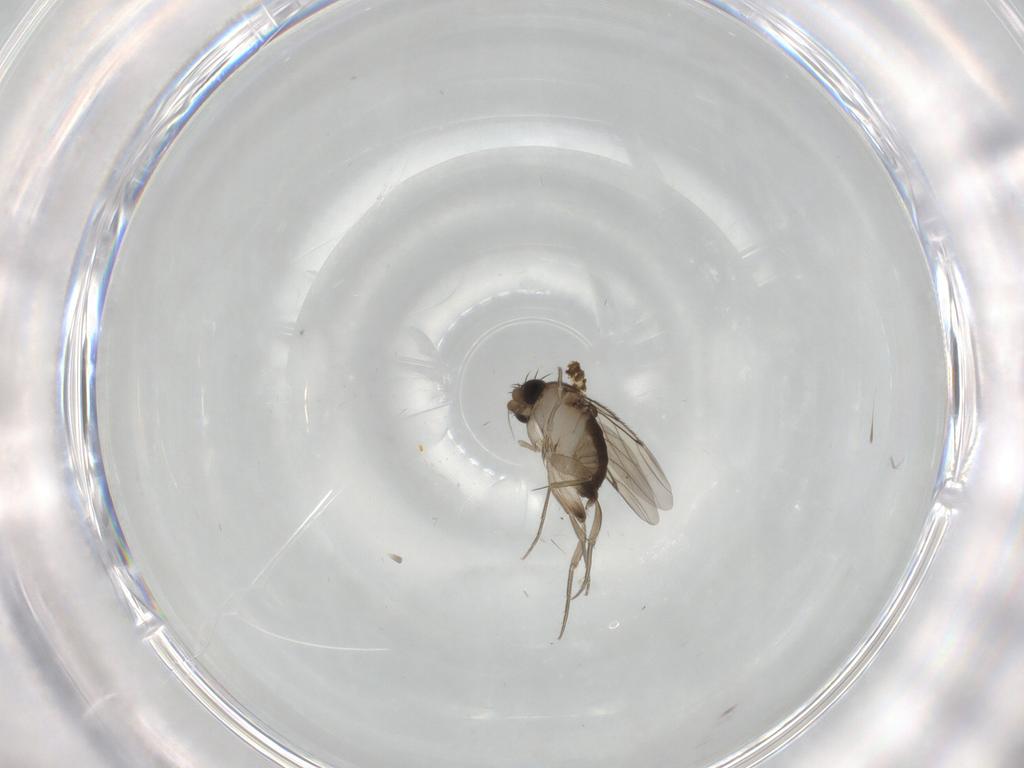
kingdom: Animalia
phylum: Arthropoda
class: Insecta
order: Diptera
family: Phoridae
